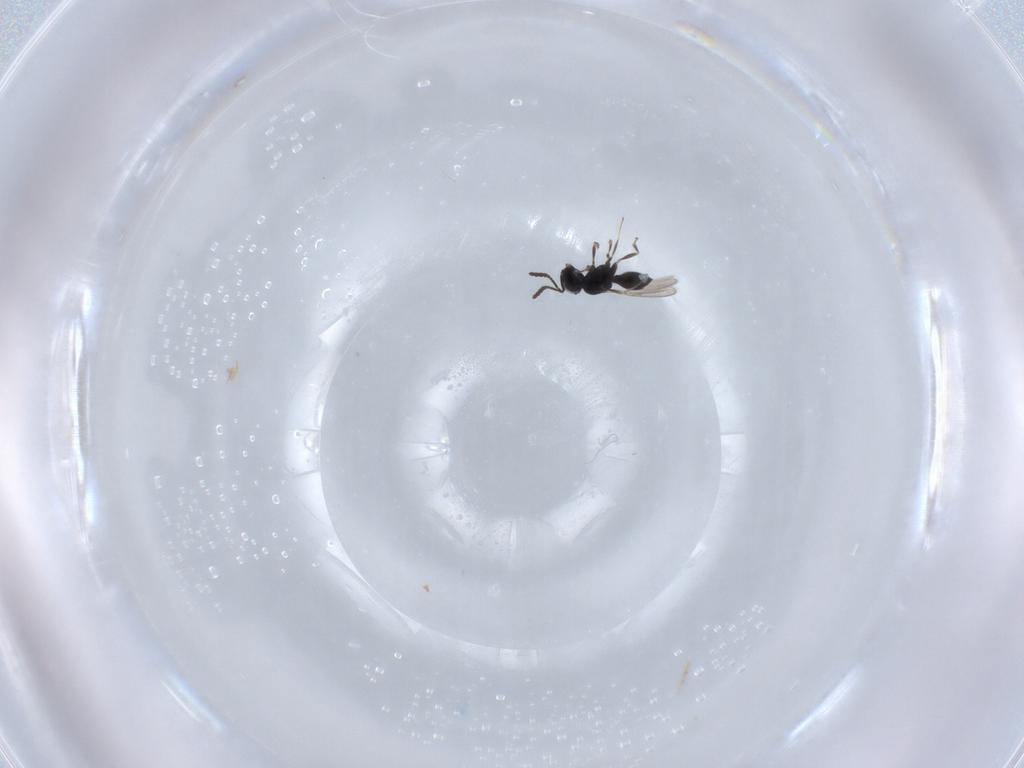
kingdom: Animalia
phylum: Arthropoda
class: Insecta
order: Hymenoptera
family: Scelionidae
